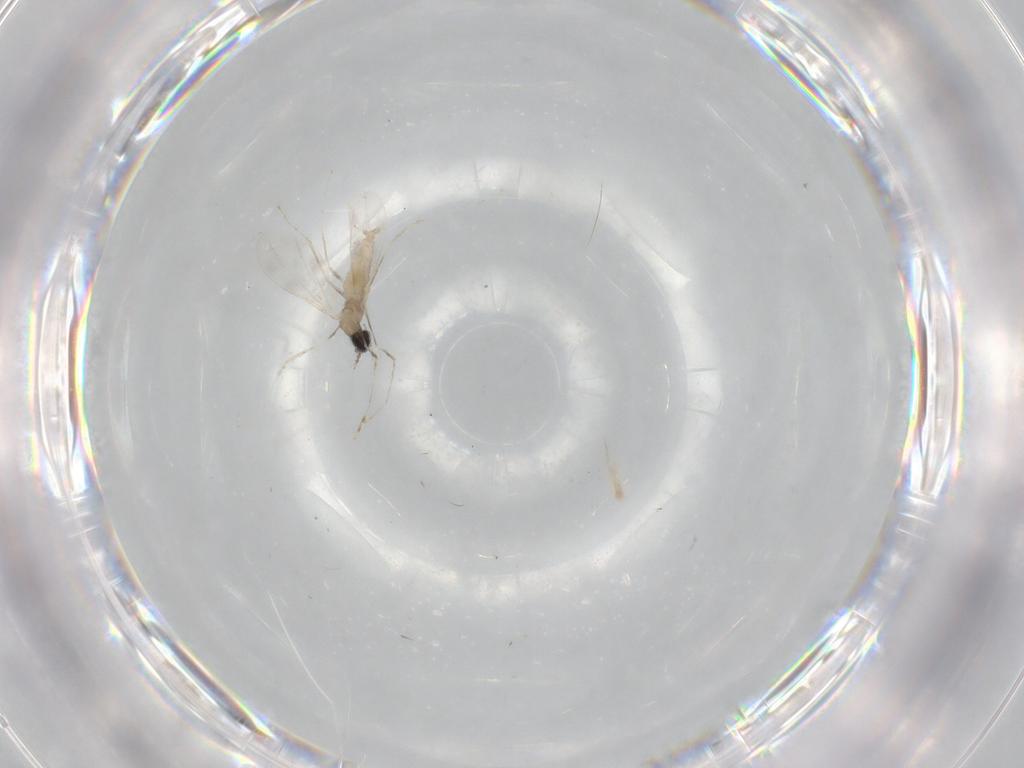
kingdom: Animalia
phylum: Arthropoda
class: Insecta
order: Diptera
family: Cecidomyiidae
